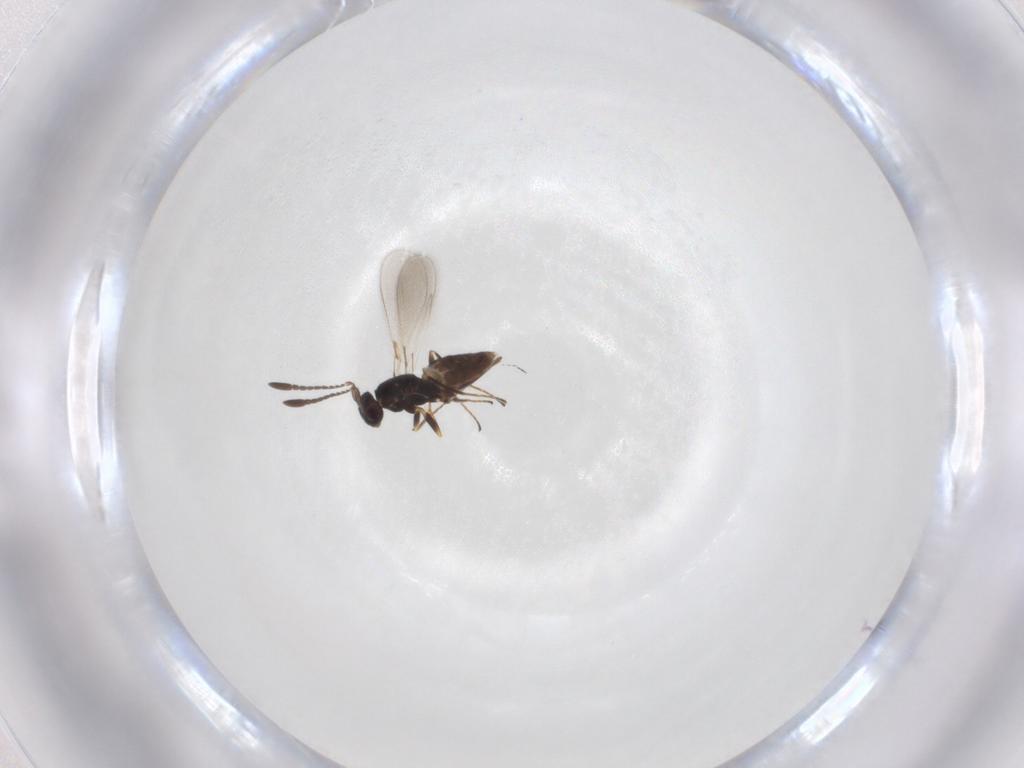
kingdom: Animalia
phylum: Arthropoda
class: Insecta
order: Hymenoptera
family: Mymaridae
